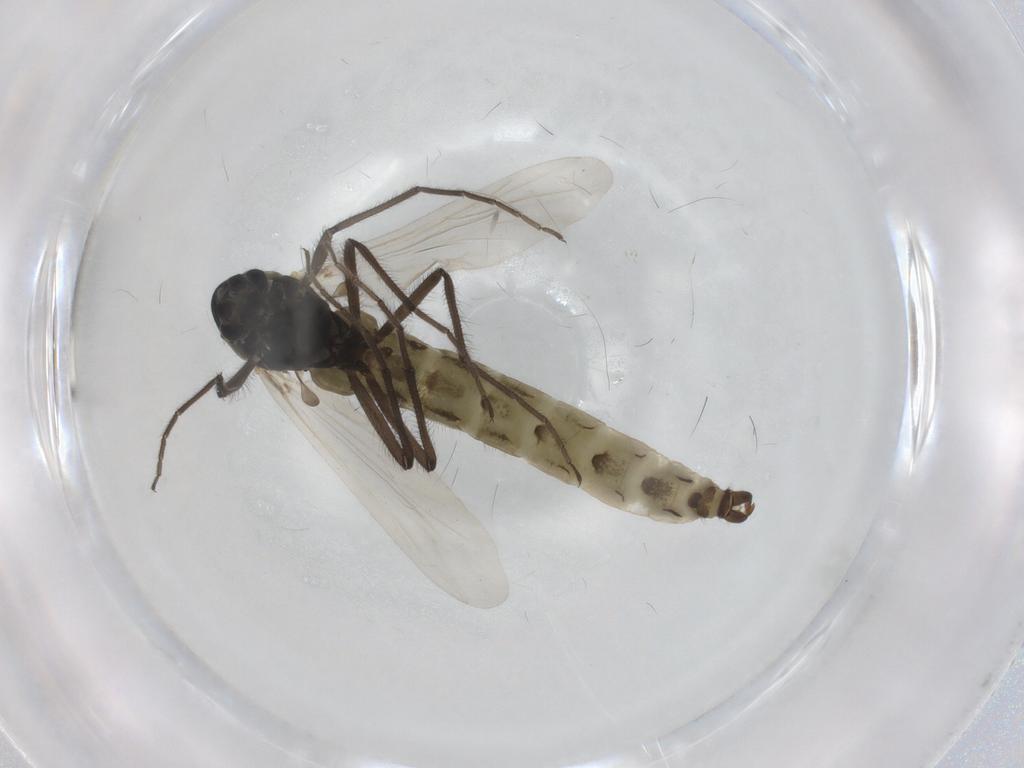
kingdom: Animalia
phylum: Arthropoda
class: Insecta
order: Diptera
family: Chironomidae
